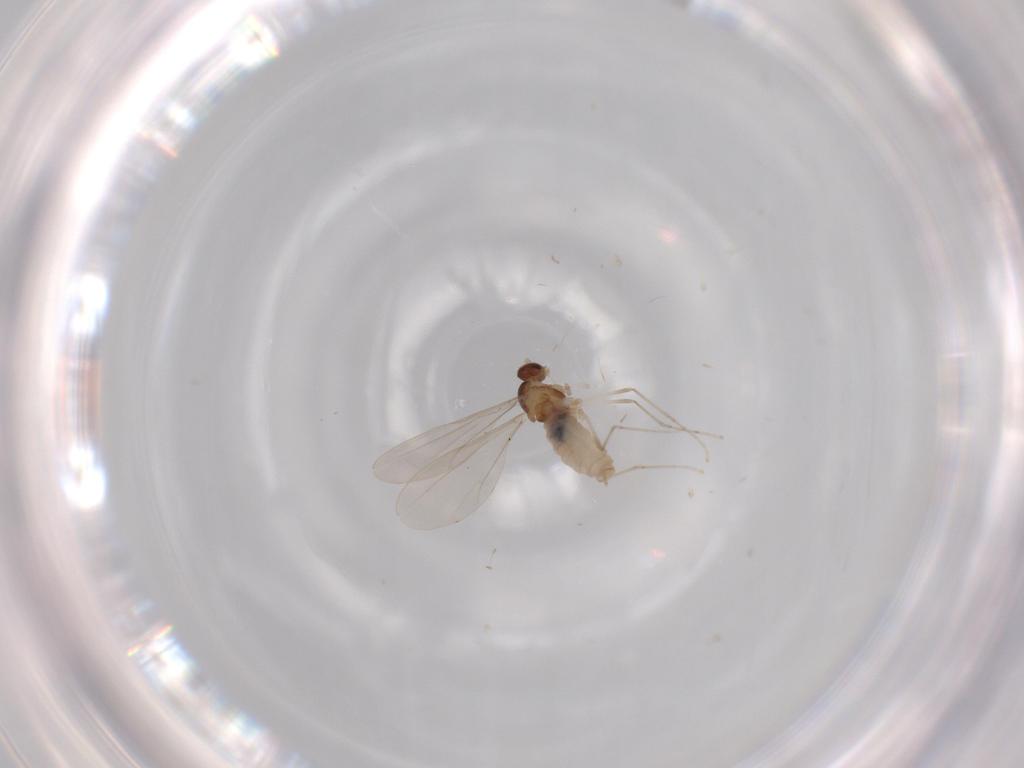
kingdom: Animalia
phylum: Arthropoda
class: Insecta
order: Diptera
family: Cecidomyiidae
